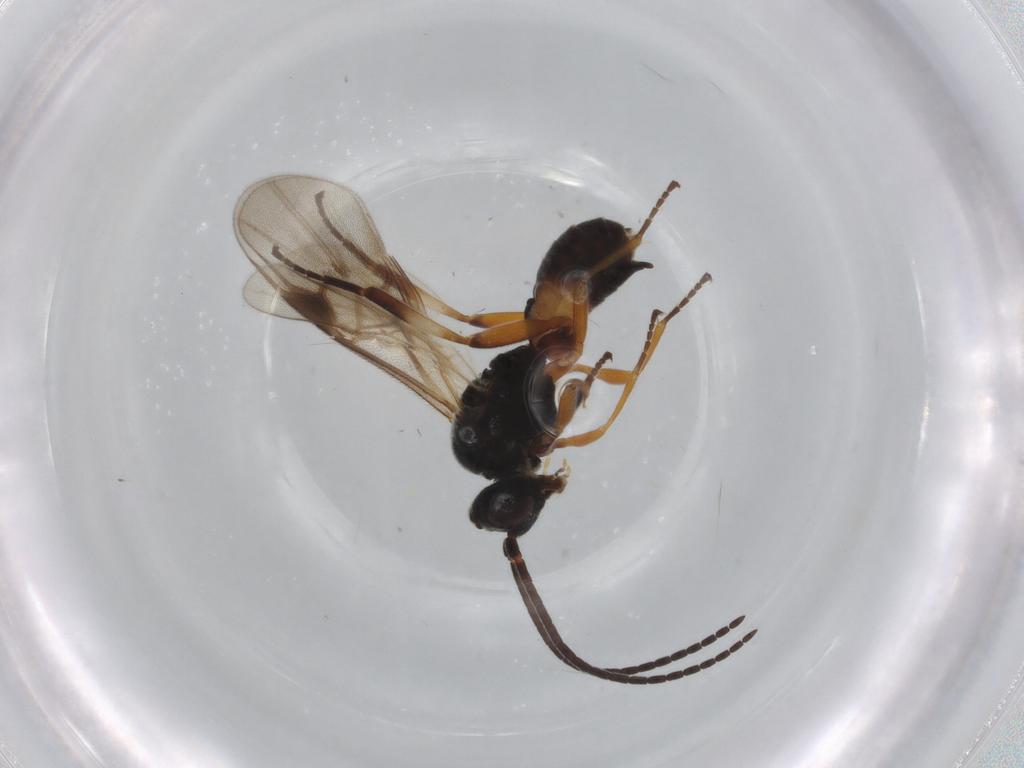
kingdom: Animalia
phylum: Arthropoda
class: Insecta
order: Hymenoptera
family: Braconidae
